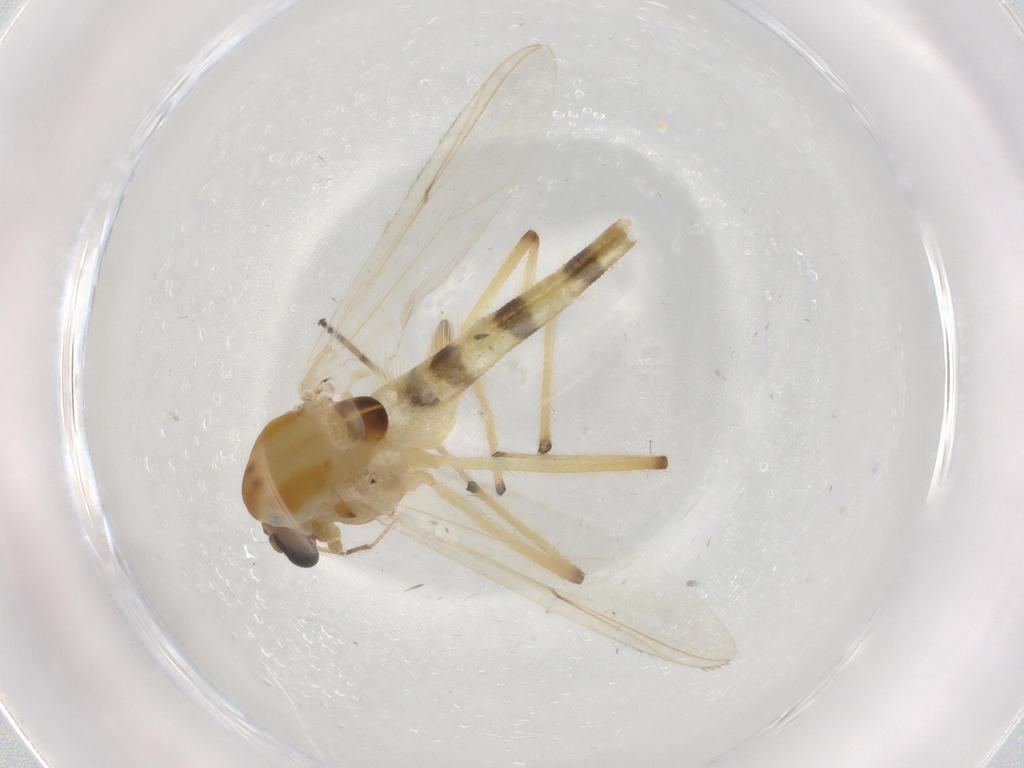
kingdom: Animalia
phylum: Arthropoda
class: Insecta
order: Diptera
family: Chironomidae
